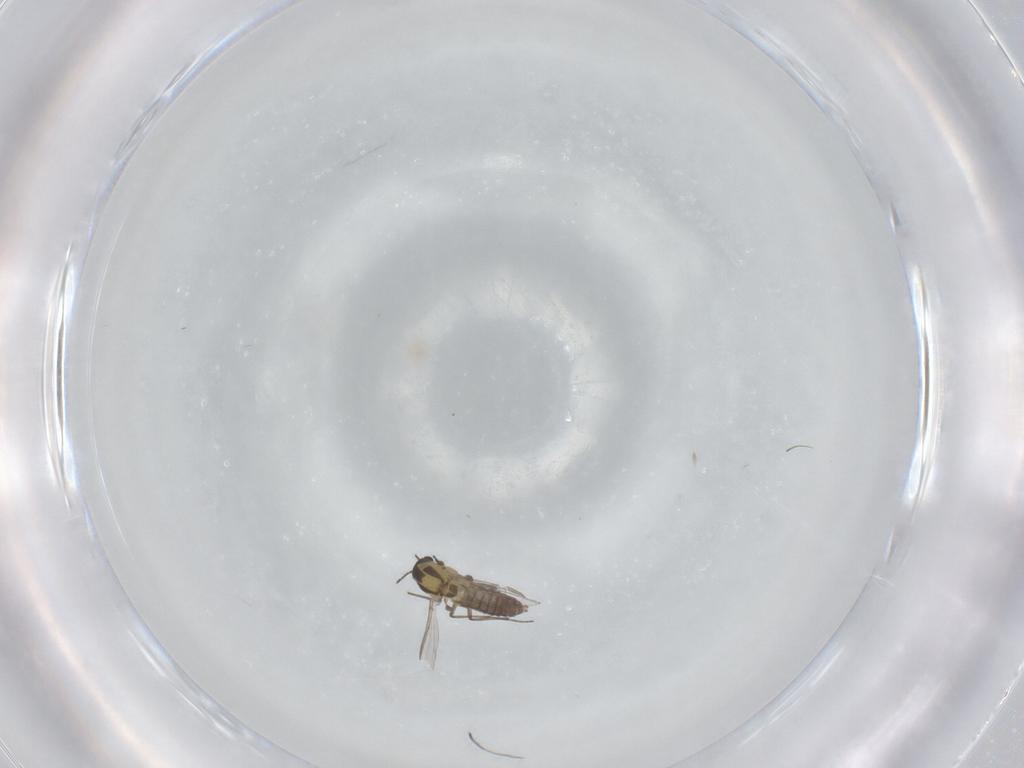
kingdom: Animalia
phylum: Arthropoda
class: Insecta
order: Diptera
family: Chironomidae
